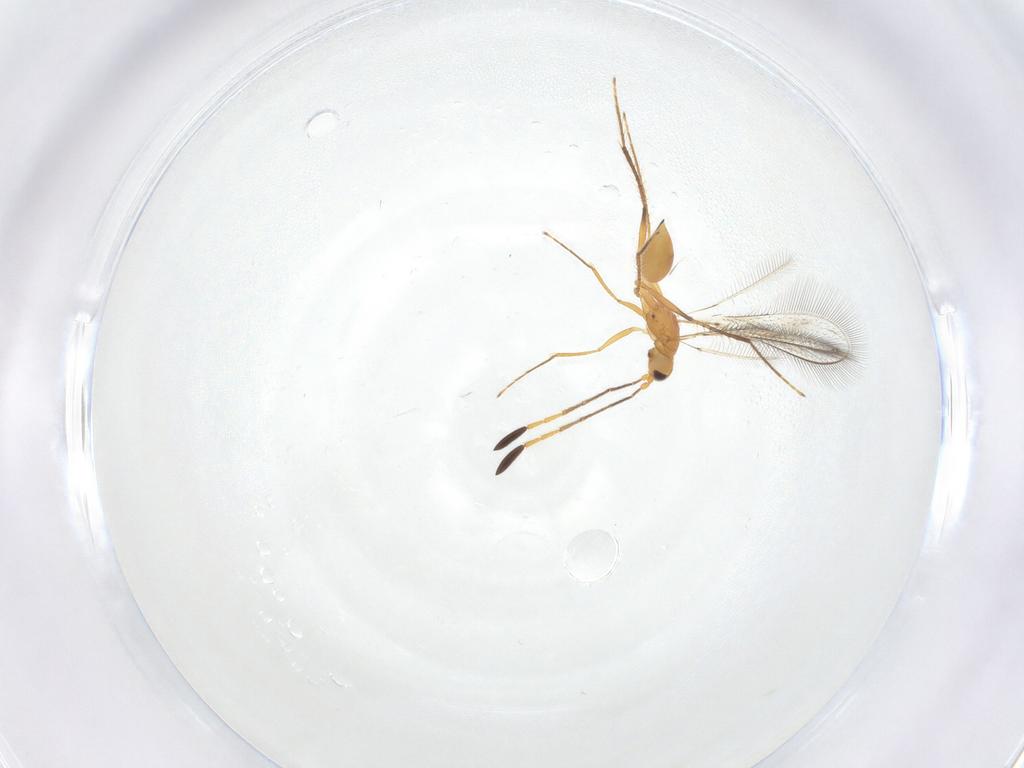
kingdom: Animalia
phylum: Arthropoda
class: Insecta
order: Hymenoptera
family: Mymaridae
